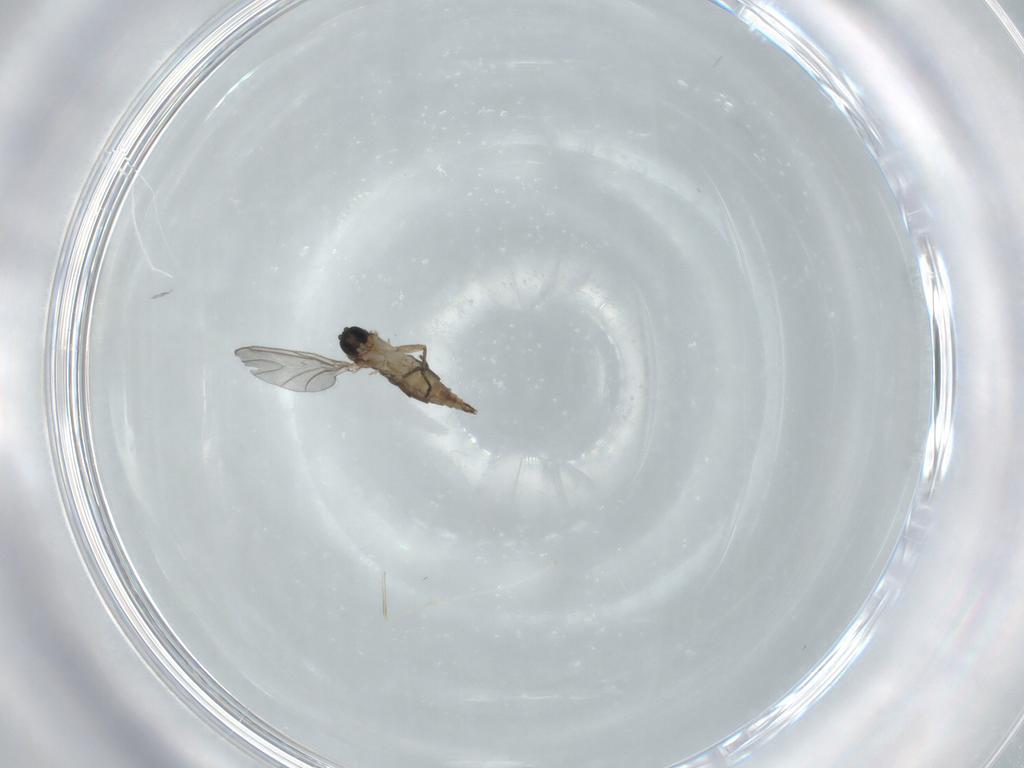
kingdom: Animalia
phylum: Arthropoda
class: Insecta
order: Diptera
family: Sciaridae
